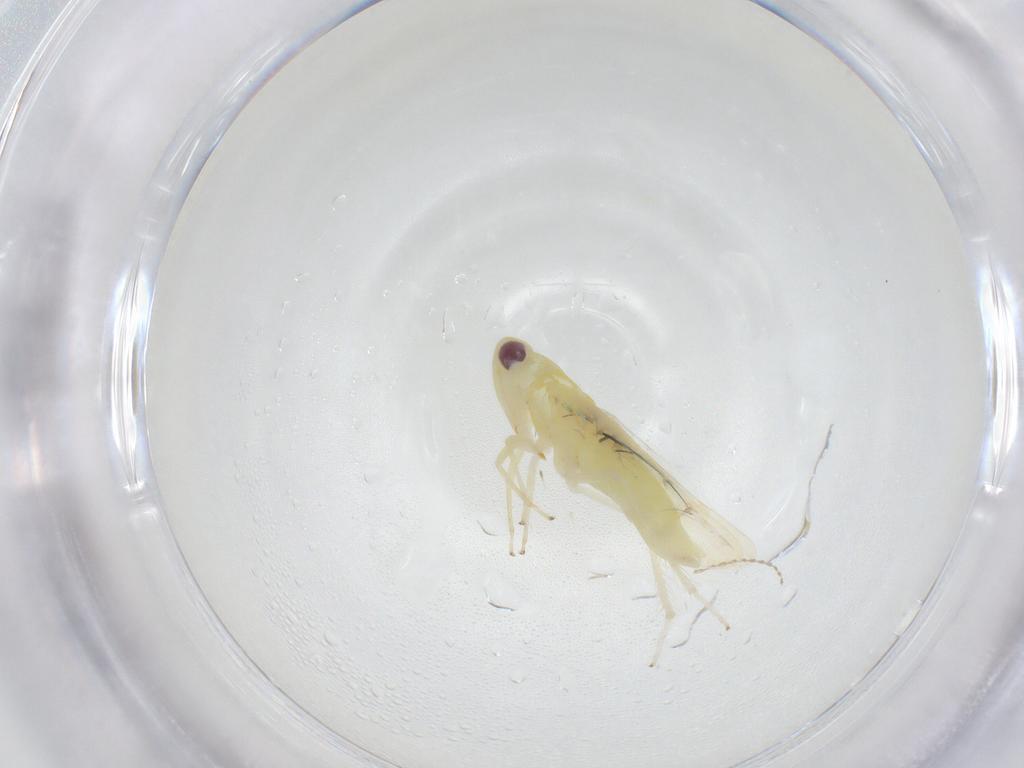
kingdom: Animalia
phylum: Arthropoda
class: Insecta
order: Hemiptera
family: Cicadellidae
